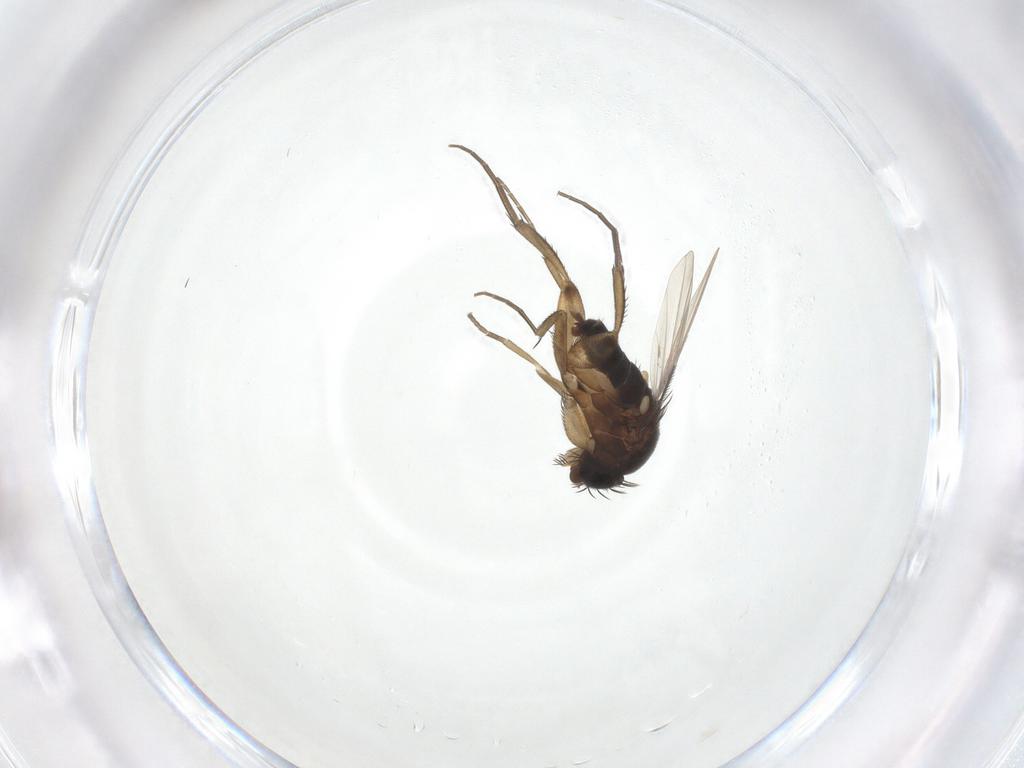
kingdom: Animalia
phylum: Arthropoda
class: Insecta
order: Diptera
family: Phoridae
